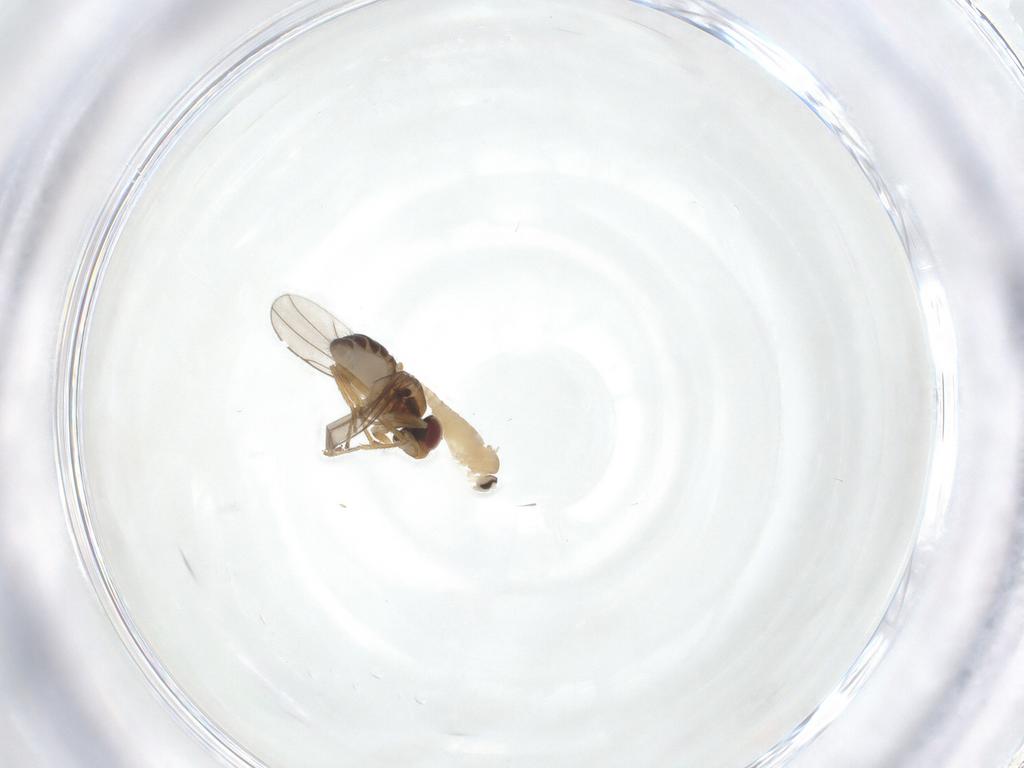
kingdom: Animalia
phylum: Arthropoda
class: Insecta
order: Diptera
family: Cecidomyiidae
